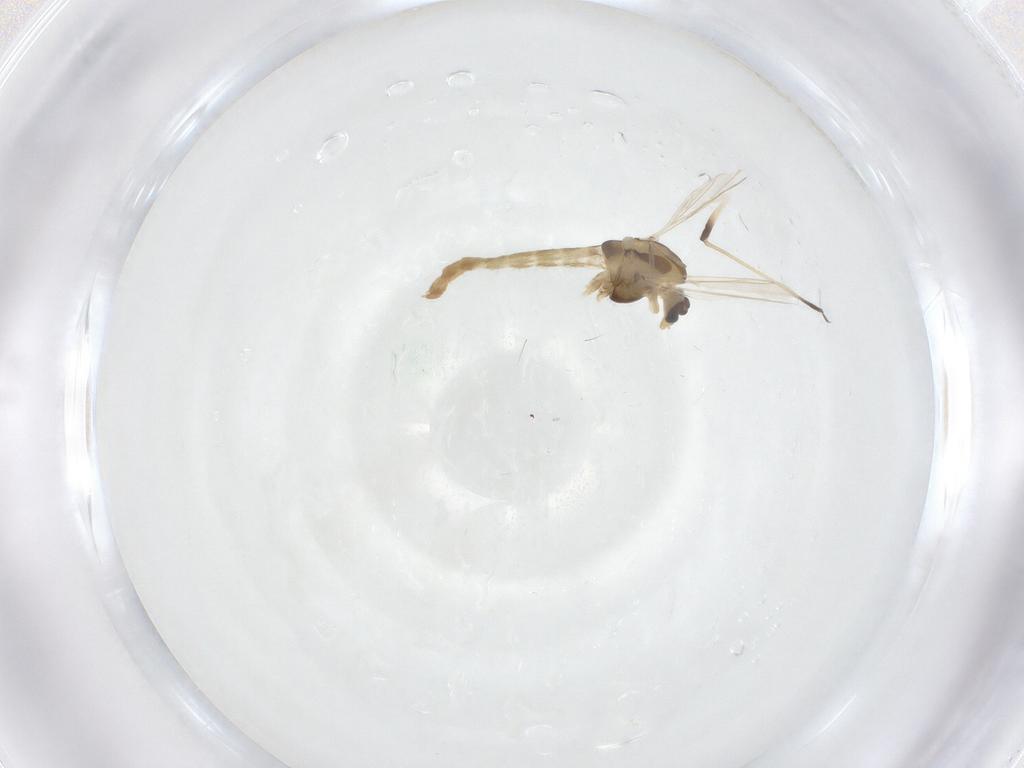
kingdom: Animalia
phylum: Arthropoda
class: Insecta
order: Diptera
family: Chironomidae
